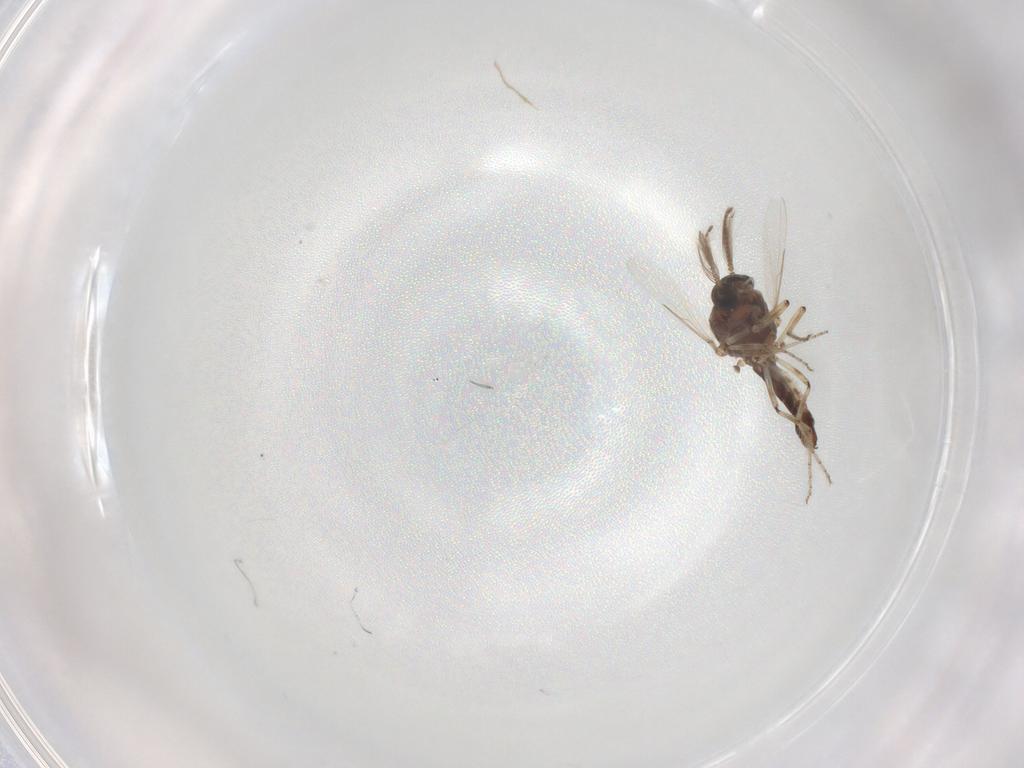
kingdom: Animalia
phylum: Arthropoda
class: Insecta
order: Diptera
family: Ceratopogonidae
